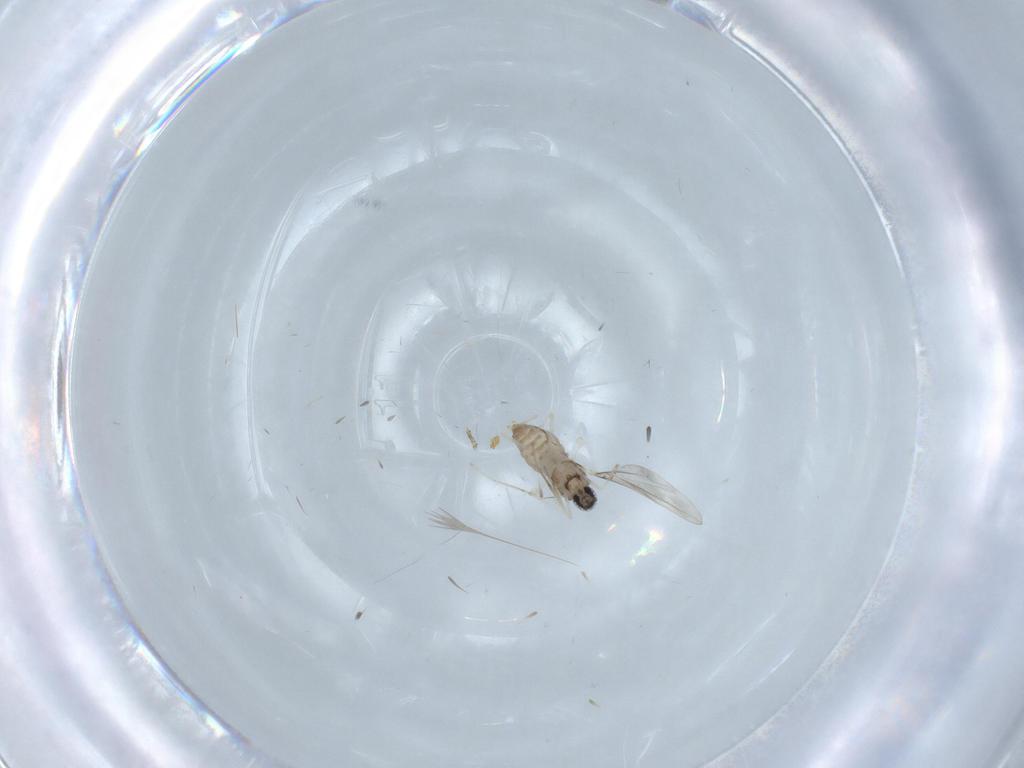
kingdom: Animalia
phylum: Arthropoda
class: Insecta
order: Diptera
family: Cecidomyiidae
